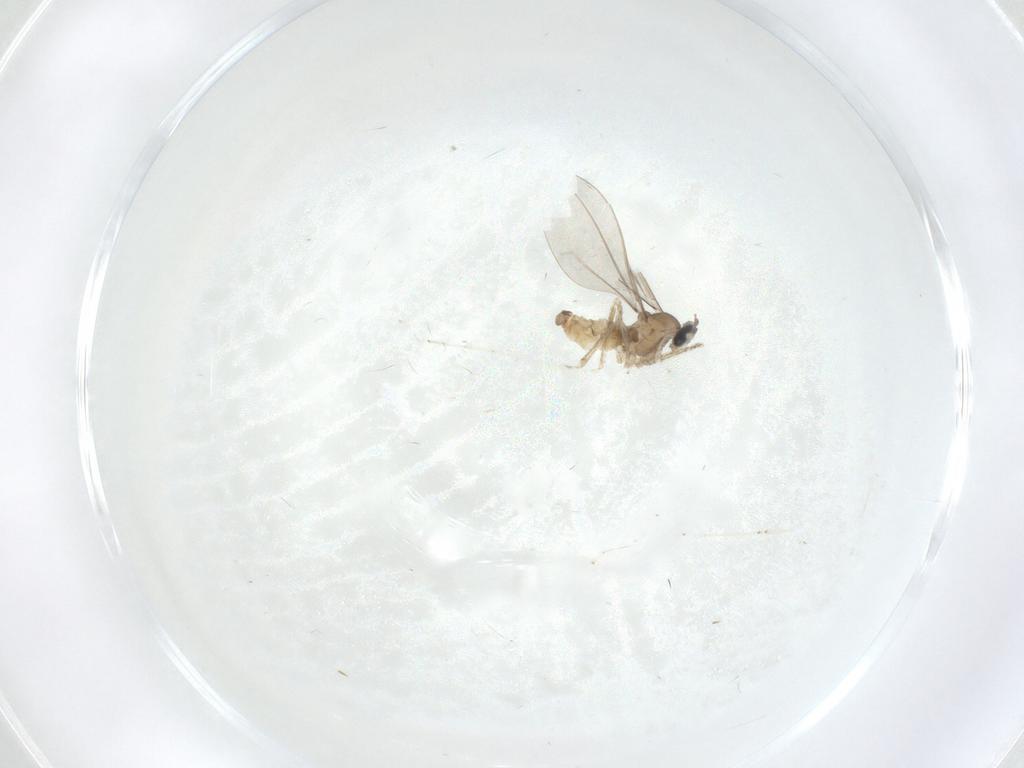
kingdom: Animalia
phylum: Arthropoda
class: Insecta
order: Diptera
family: Cecidomyiidae
